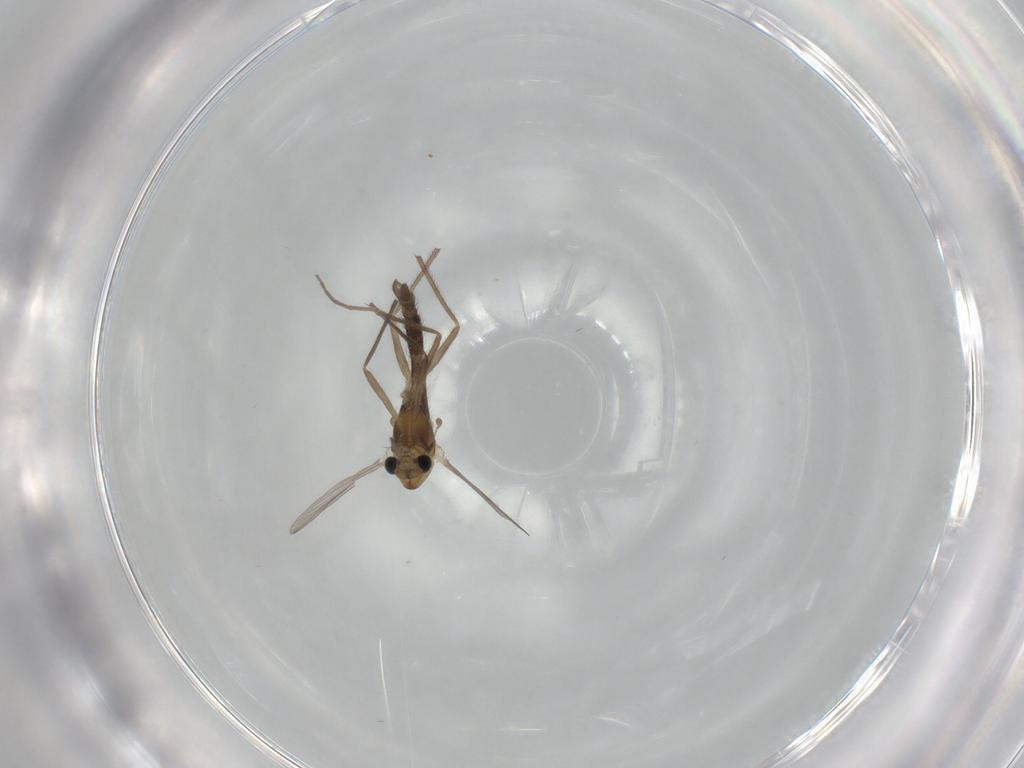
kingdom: Animalia
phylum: Arthropoda
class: Insecta
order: Diptera
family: Chironomidae
